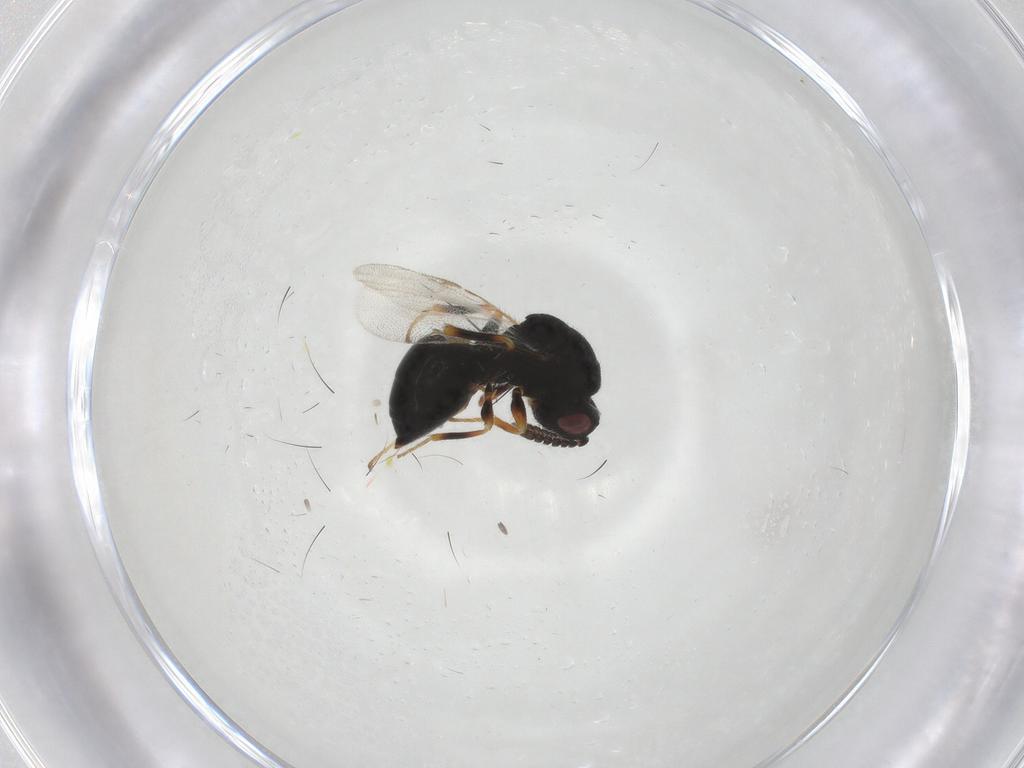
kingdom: Animalia
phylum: Arthropoda
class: Insecta
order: Hymenoptera
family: Eurytomidae
